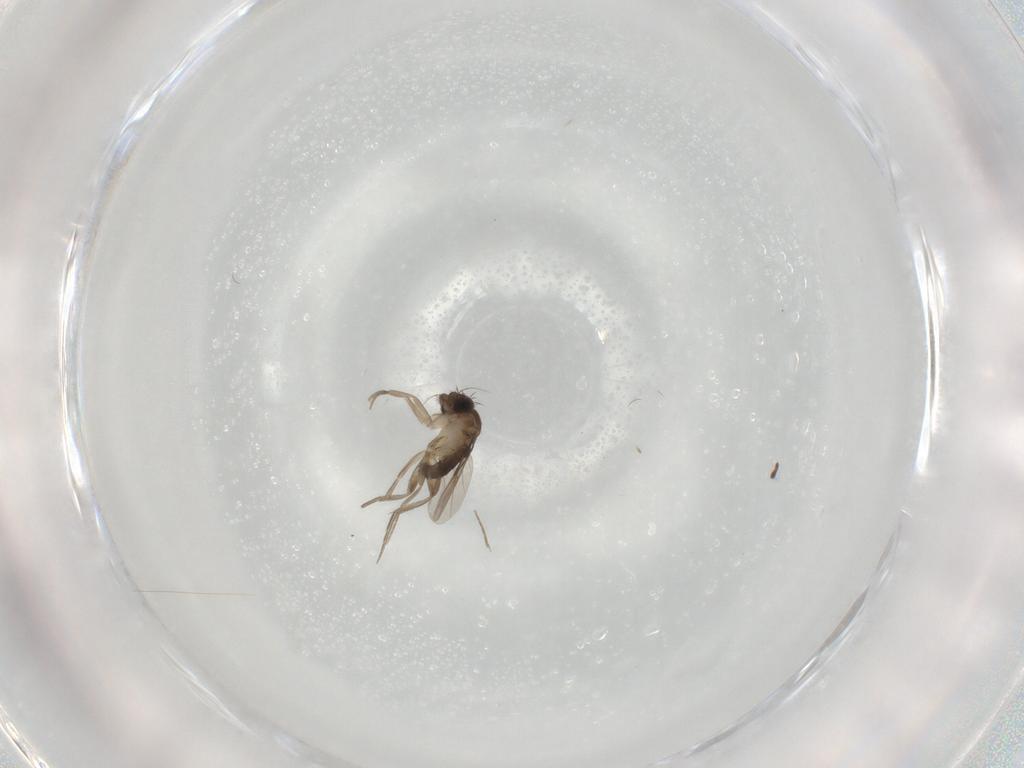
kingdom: Animalia
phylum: Arthropoda
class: Insecta
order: Diptera
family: Phoridae
